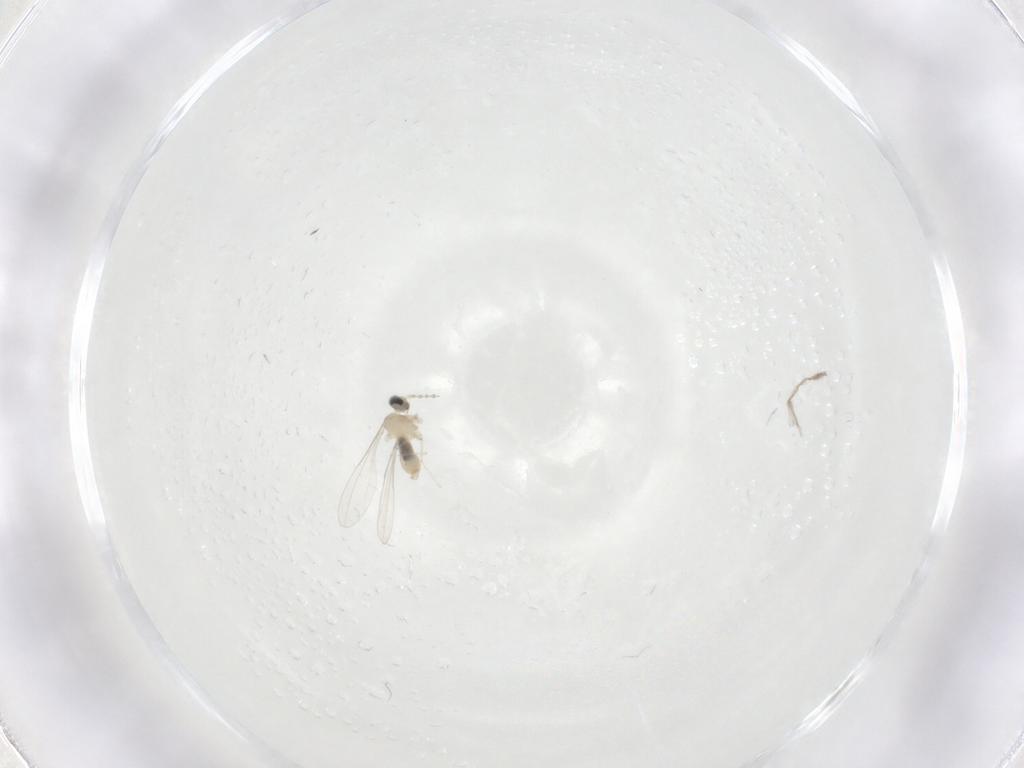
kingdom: Animalia
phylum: Arthropoda
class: Insecta
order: Diptera
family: Cecidomyiidae
